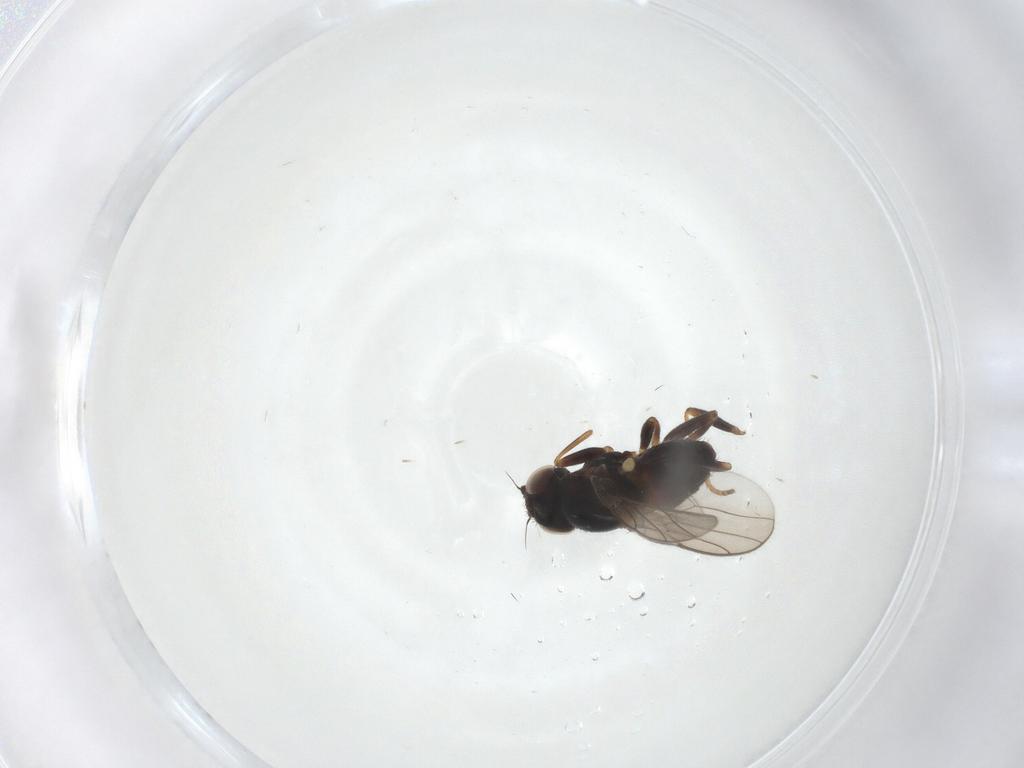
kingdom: Animalia
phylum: Arthropoda
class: Insecta
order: Diptera
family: Chloropidae
